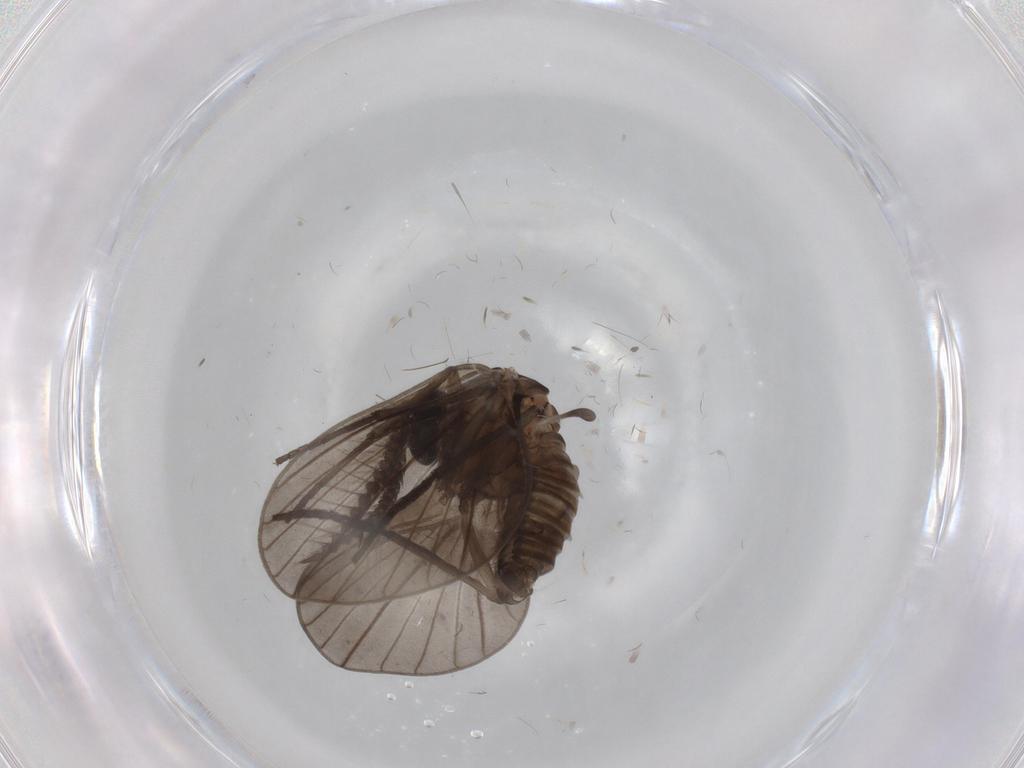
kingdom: Animalia
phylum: Arthropoda
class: Insecta
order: Diptera
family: Psychodidae
